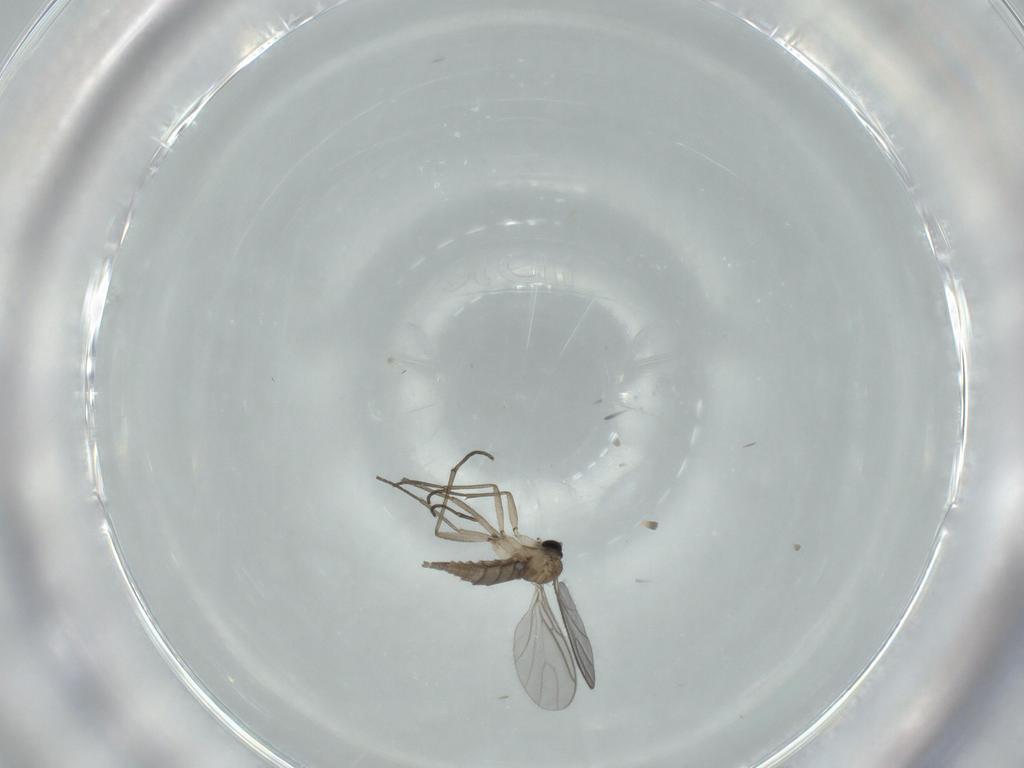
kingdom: Animalia
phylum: Arthropoda
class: Insecta
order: Diptera
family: Sciaridae
